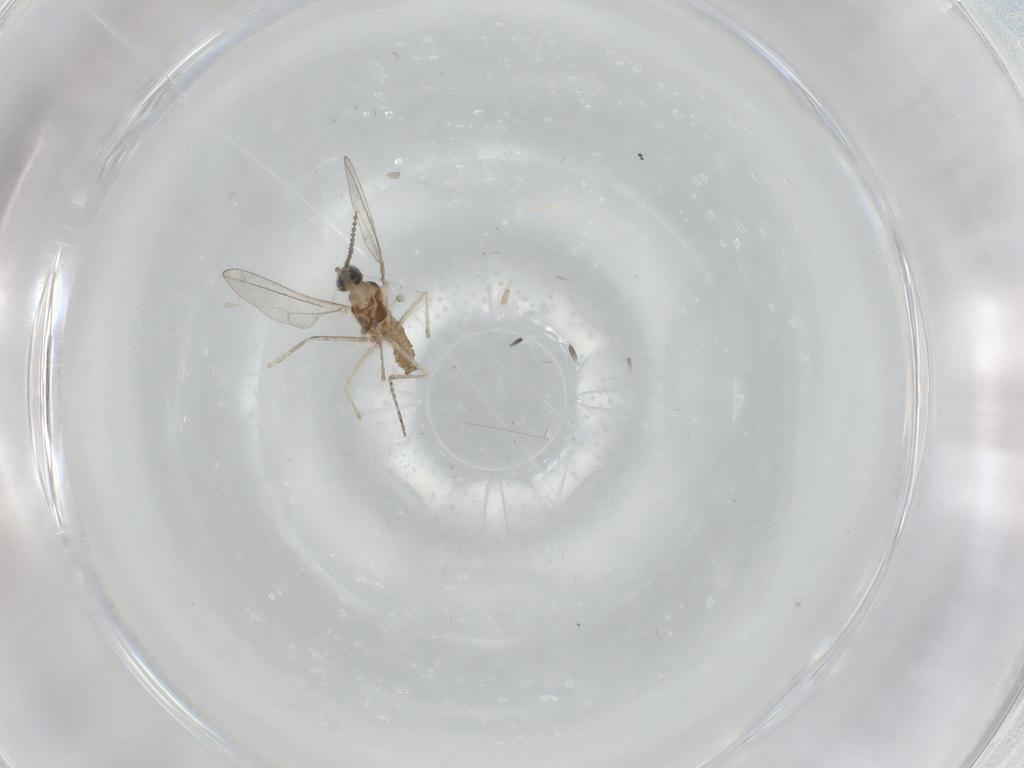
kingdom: Animalia
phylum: Arthropoda
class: Insecta
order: Diptera
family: Cecidomyiidae
